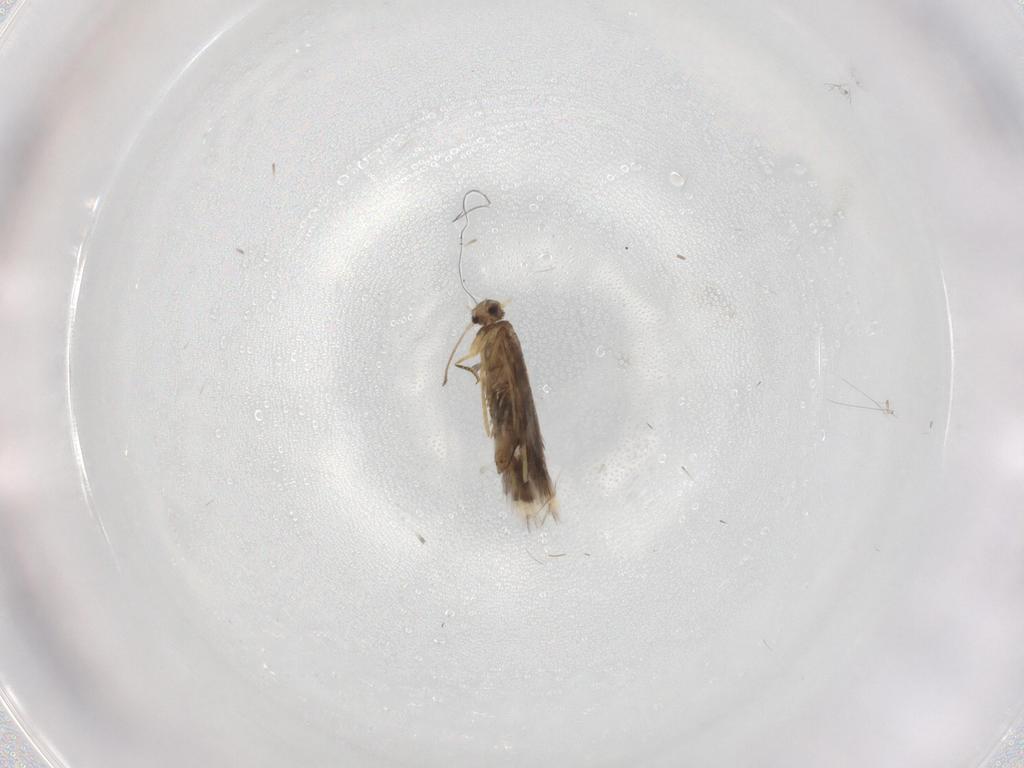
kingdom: Animalia
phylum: Arthropoda
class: Insecta
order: Lepidoptera
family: Heliozelidae
